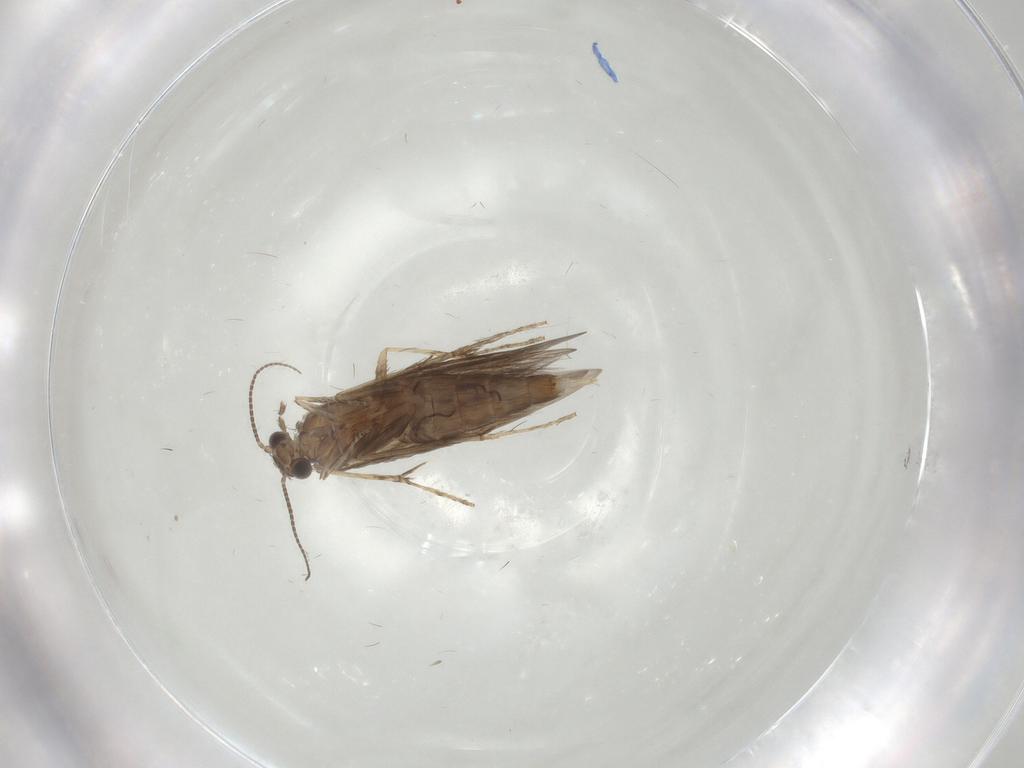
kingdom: Animalia
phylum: Arthropoda
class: Insecta
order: Trichoptera
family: Hydroptilidae
